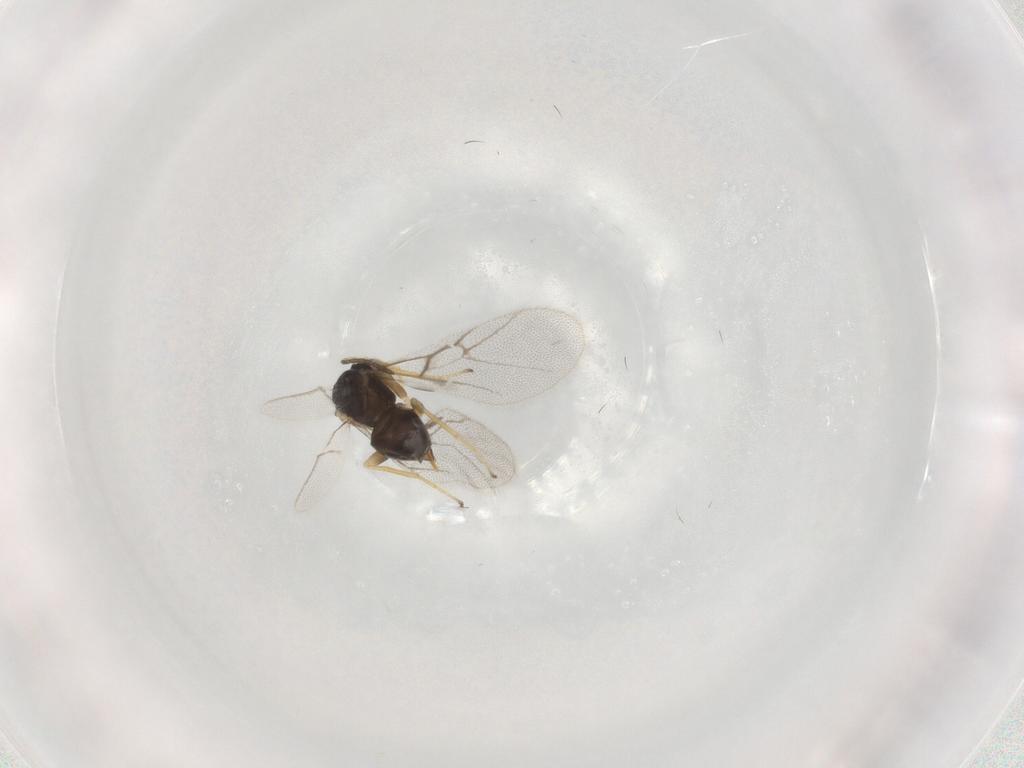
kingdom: Animalia
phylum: Arthropoda
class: Insecta
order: Hymenoptera
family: Cynipidae
